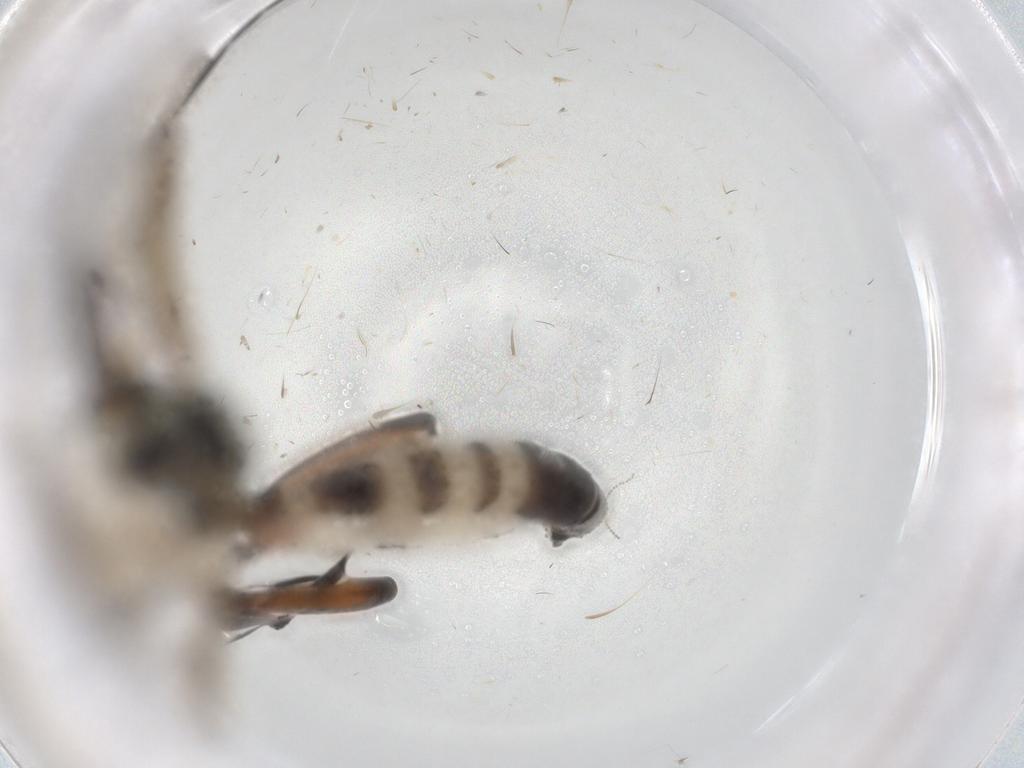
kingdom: Animalia
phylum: Arthropoda
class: Insecta
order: Hymenoptera
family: Ichneumonidae
